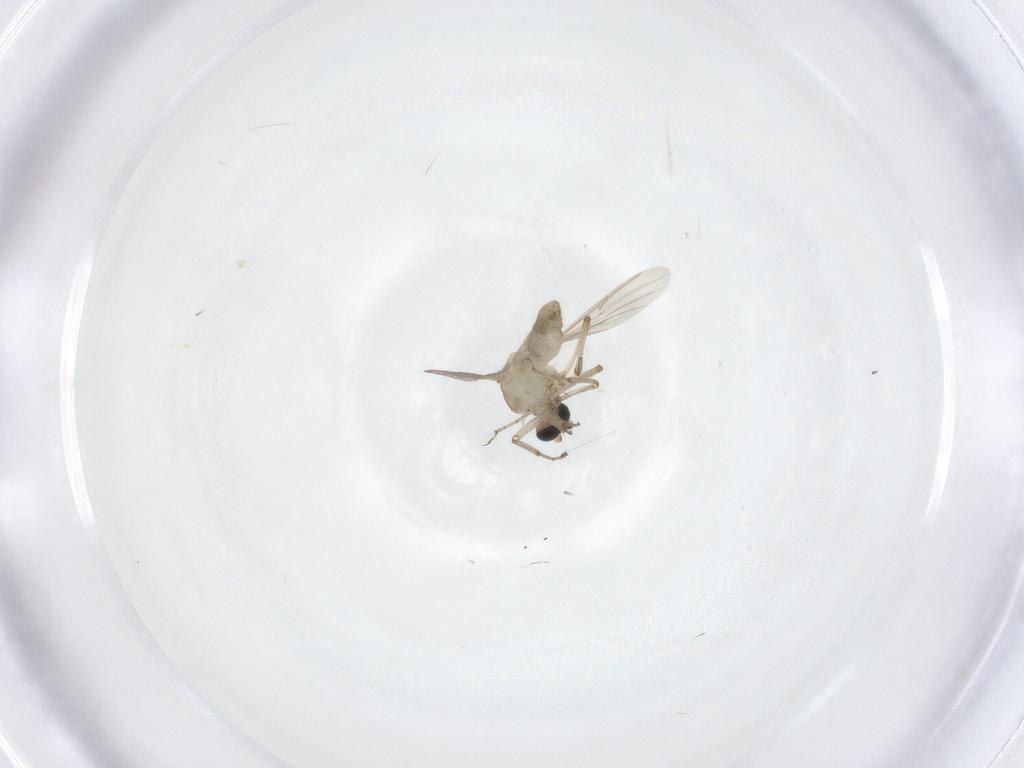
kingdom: Animalia
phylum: Arthropoda
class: Insecta
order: Diptera
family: Ceratopogonidae
